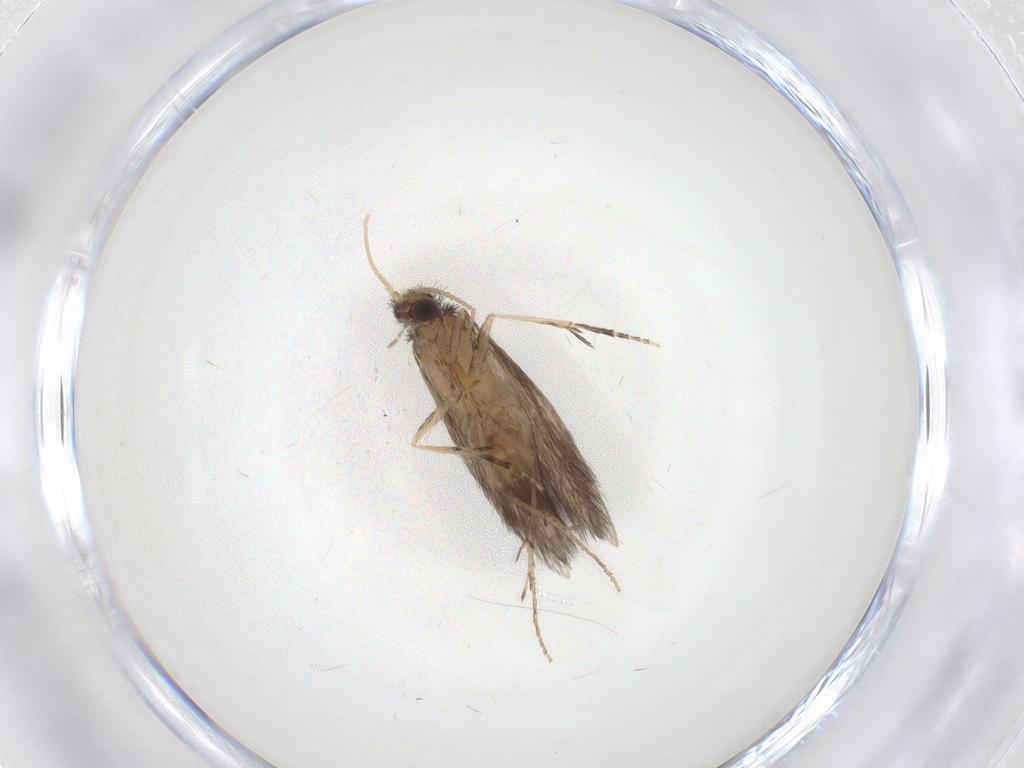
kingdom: Animalia
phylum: Arthropoda
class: Insecta
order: Trichoptera
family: Hydroptilidae
